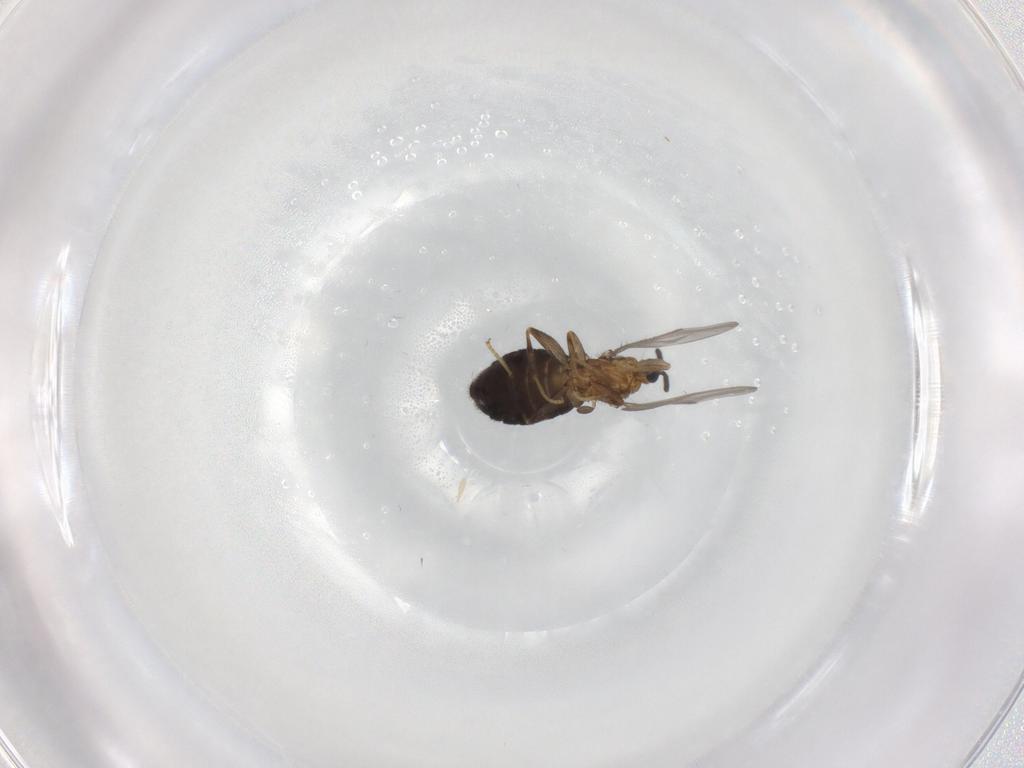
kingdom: Animalia
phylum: Arthropoda
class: Insecta
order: Diptera
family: Scatopsidae
